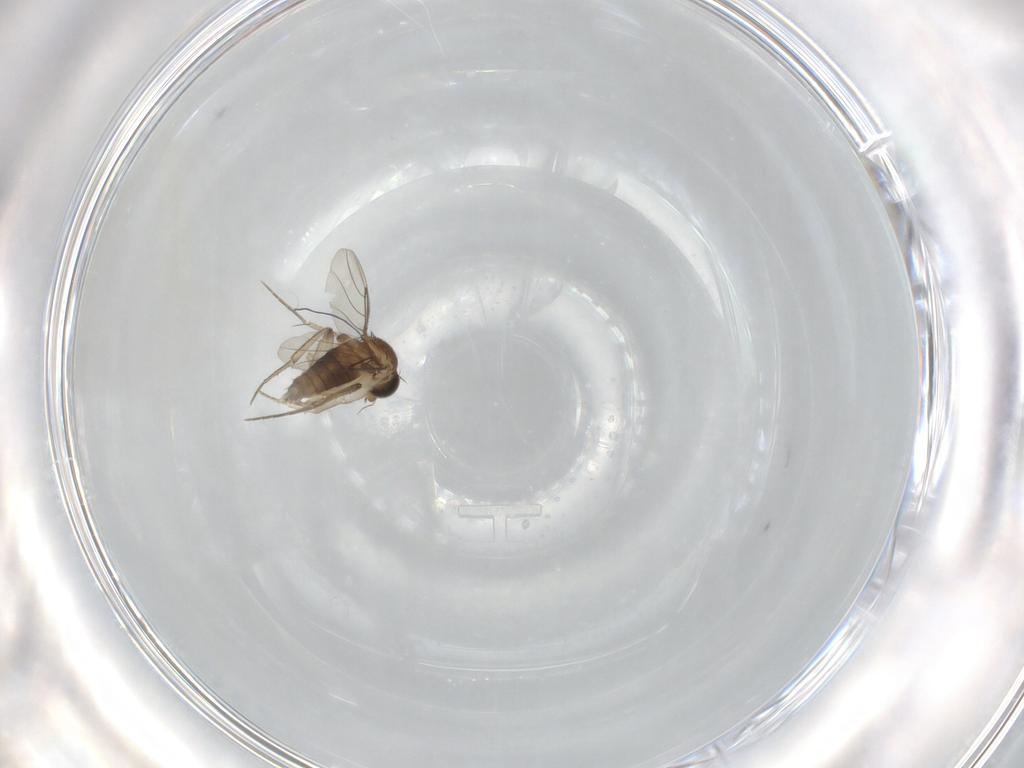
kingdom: Animalia
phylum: Arthropoda
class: Insecta
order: Diptera
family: Phoridae
